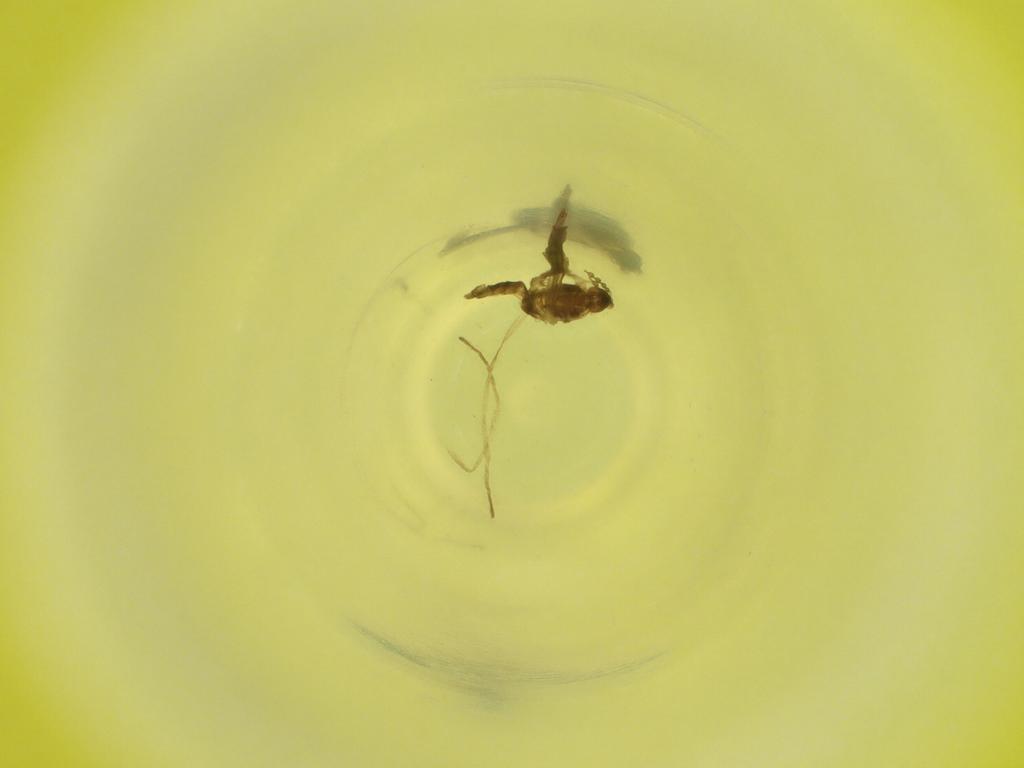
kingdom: Animalia
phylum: Arthropoda
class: Insecta
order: Diptera
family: Cecidomyiidae
